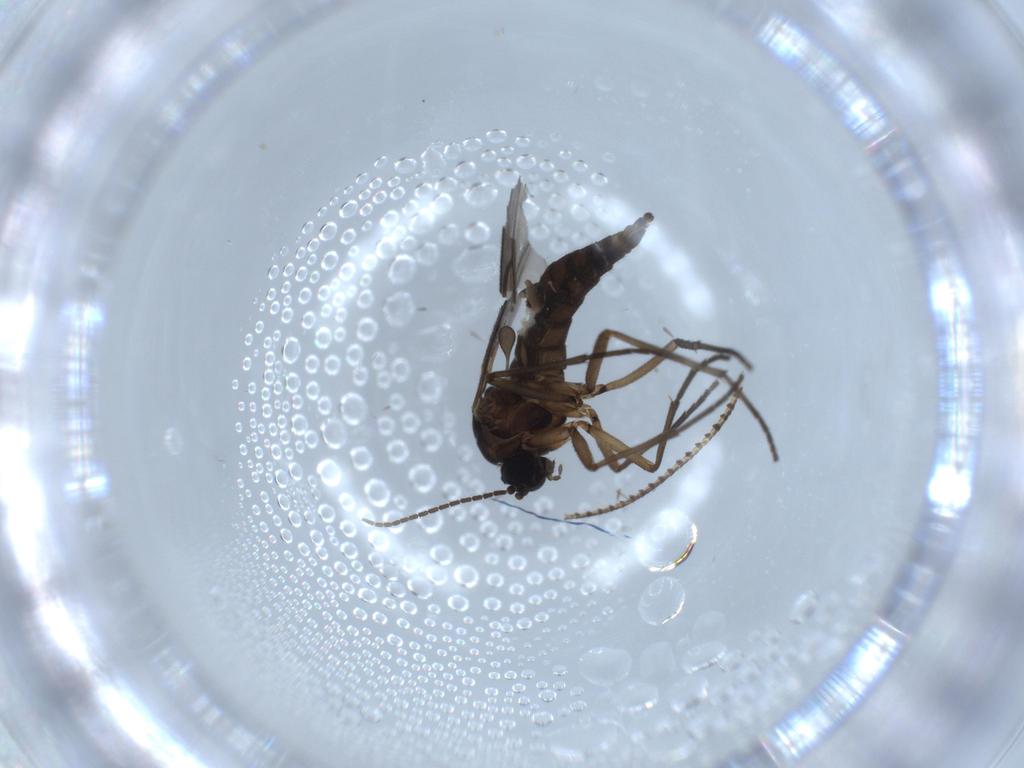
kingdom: Animalia
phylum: Arthropoda
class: Insecta
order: Diptera
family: Sciaridae
